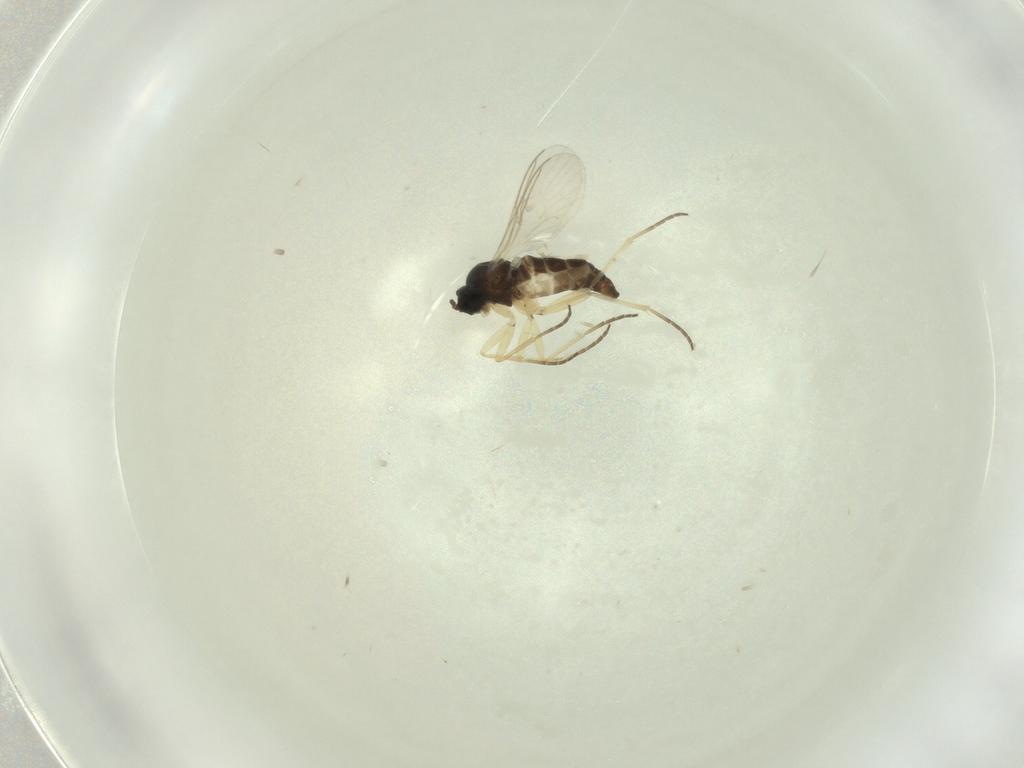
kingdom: Animalia
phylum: Arthropoda
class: Insecta
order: Diptera
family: Sciaridae
